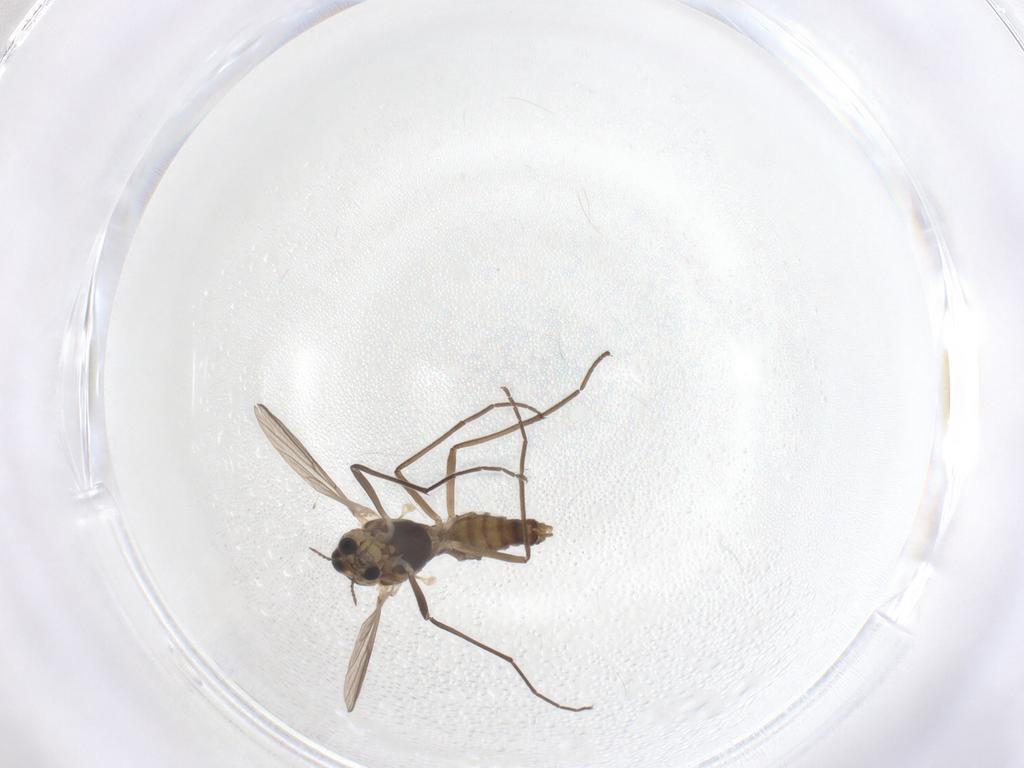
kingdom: Animalia
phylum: Arthropoda
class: Insecta
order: Diptera
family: Chironomidae
